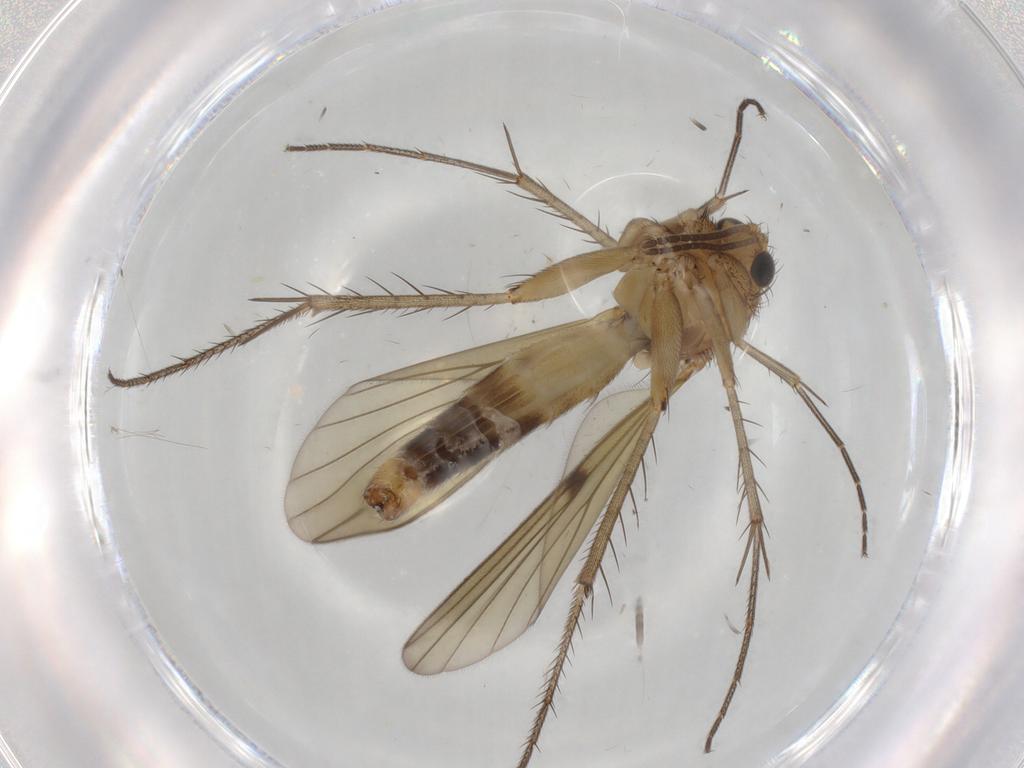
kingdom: Animalia
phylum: Arthropoda
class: Insecta
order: Diptera
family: Sciaridae
